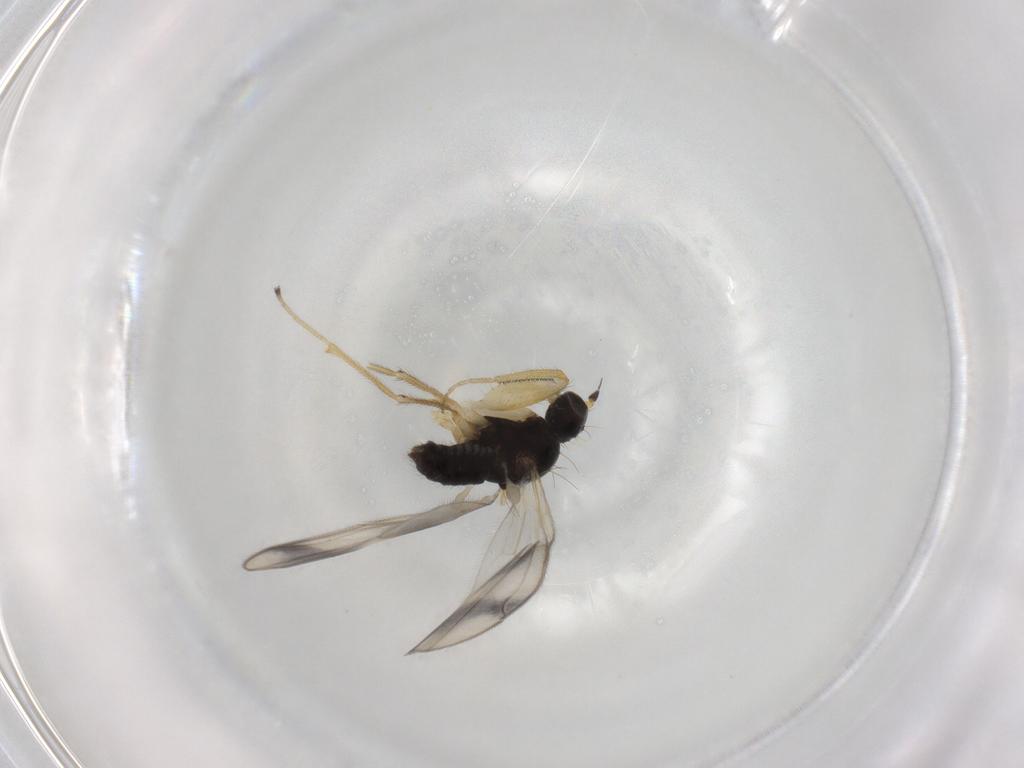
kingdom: Animalia
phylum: Arthropoda
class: Insecta
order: Diptera
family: Chironomidae
